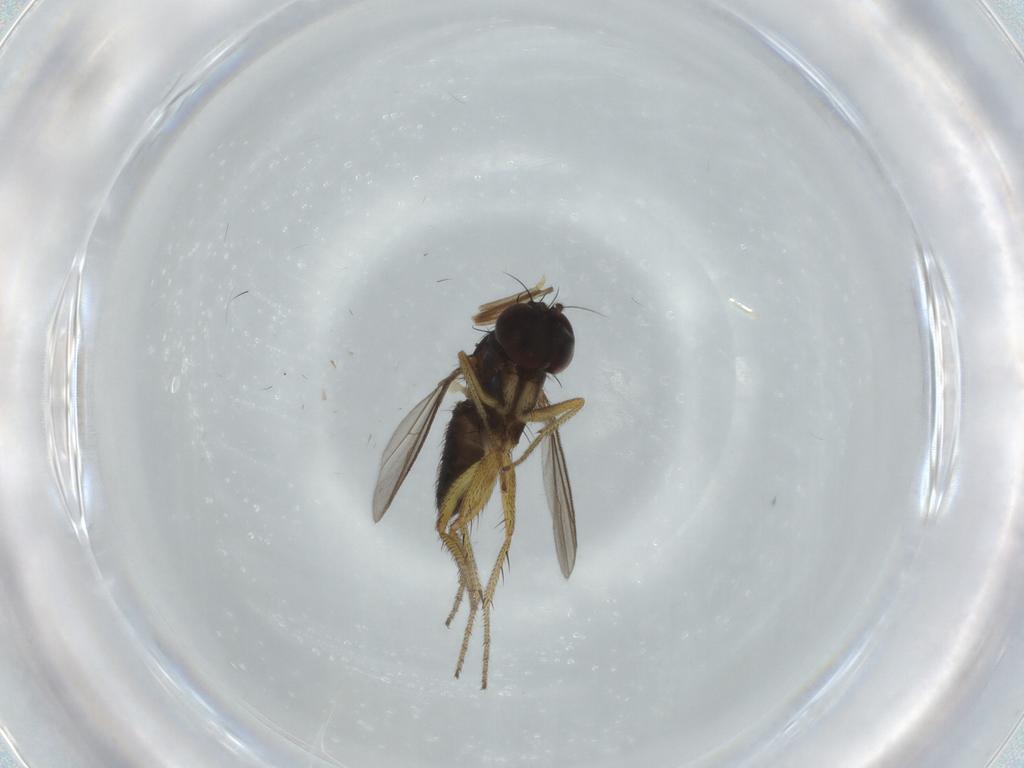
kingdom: Animalia
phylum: Arthropoda
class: Insecta
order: Diptera
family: Dolichopodidae
